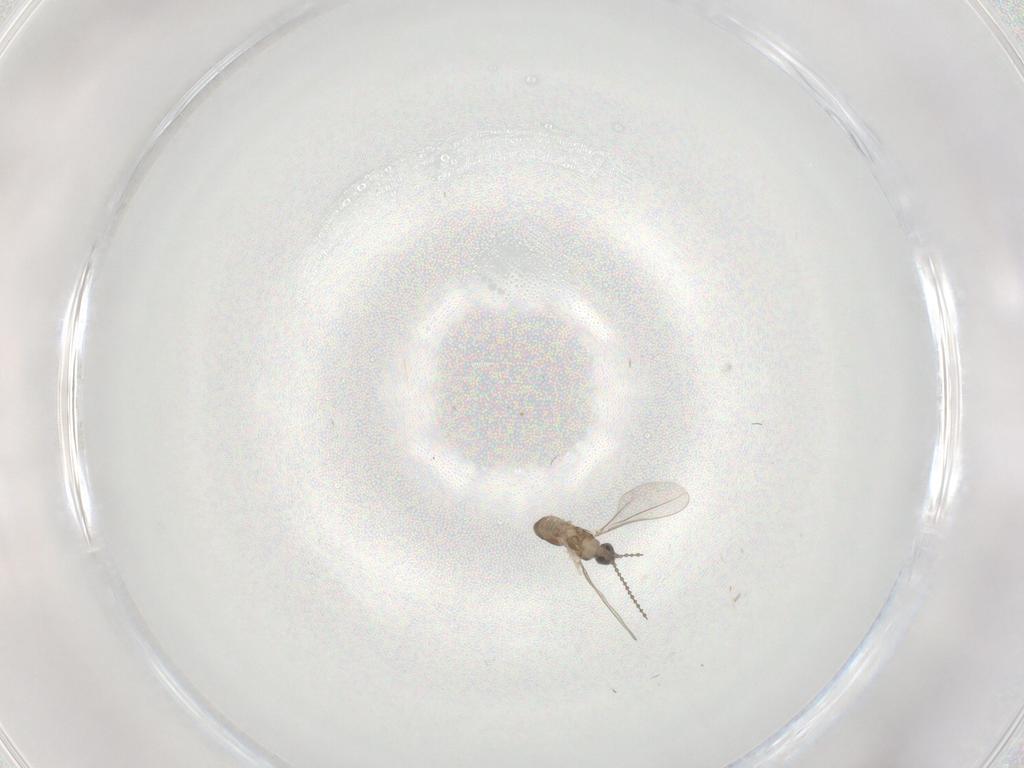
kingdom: Animalia
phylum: Arthropoda
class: Insecta
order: Diptera
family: Cecidomyiidae
